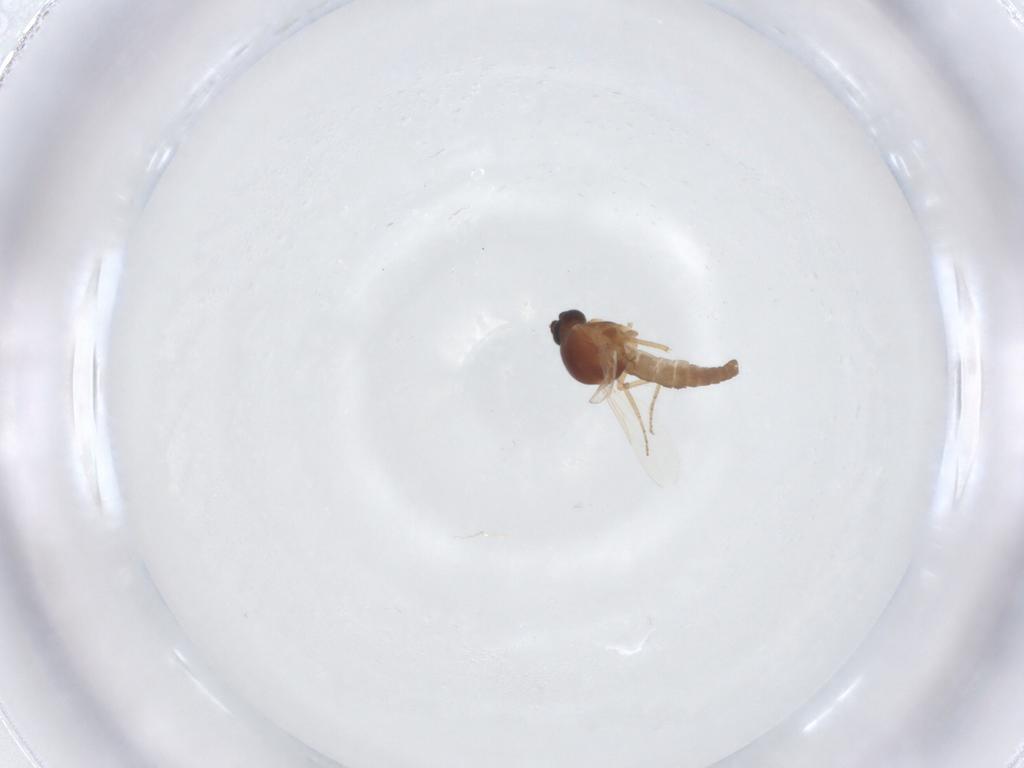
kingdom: Animalia
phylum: Arthropoda
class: Insecta
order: Diptera
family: Ceratopogonidae
